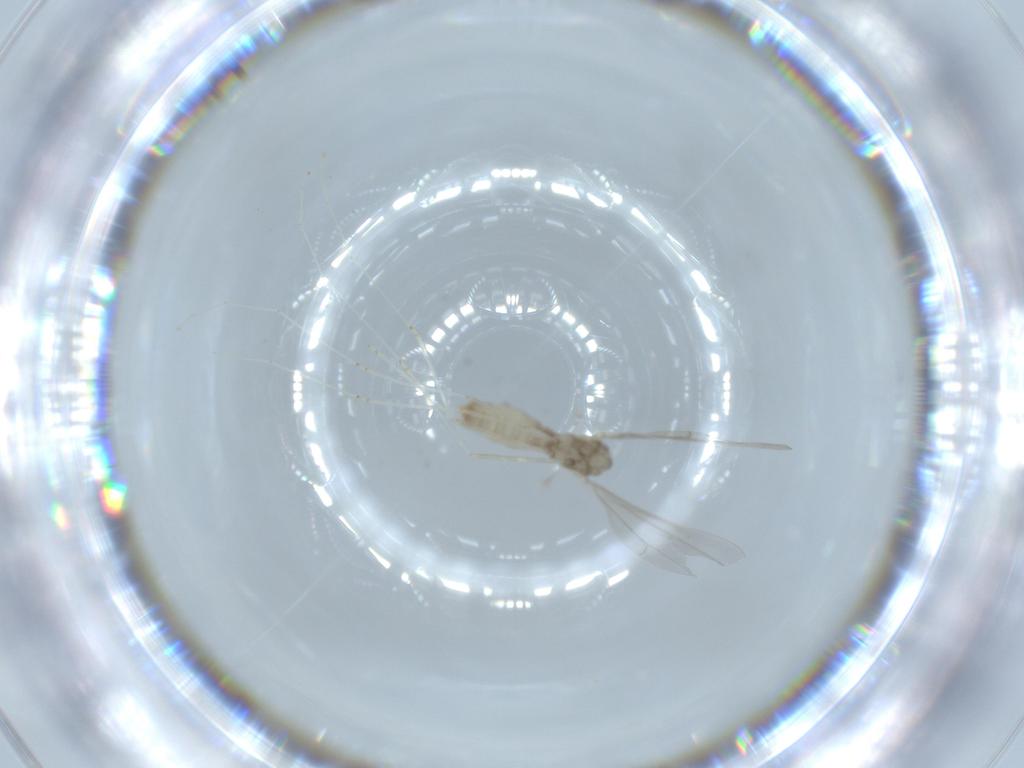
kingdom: Animalia
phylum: Arthropoda
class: Insecta
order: Diptera
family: Cecidomyiidae
